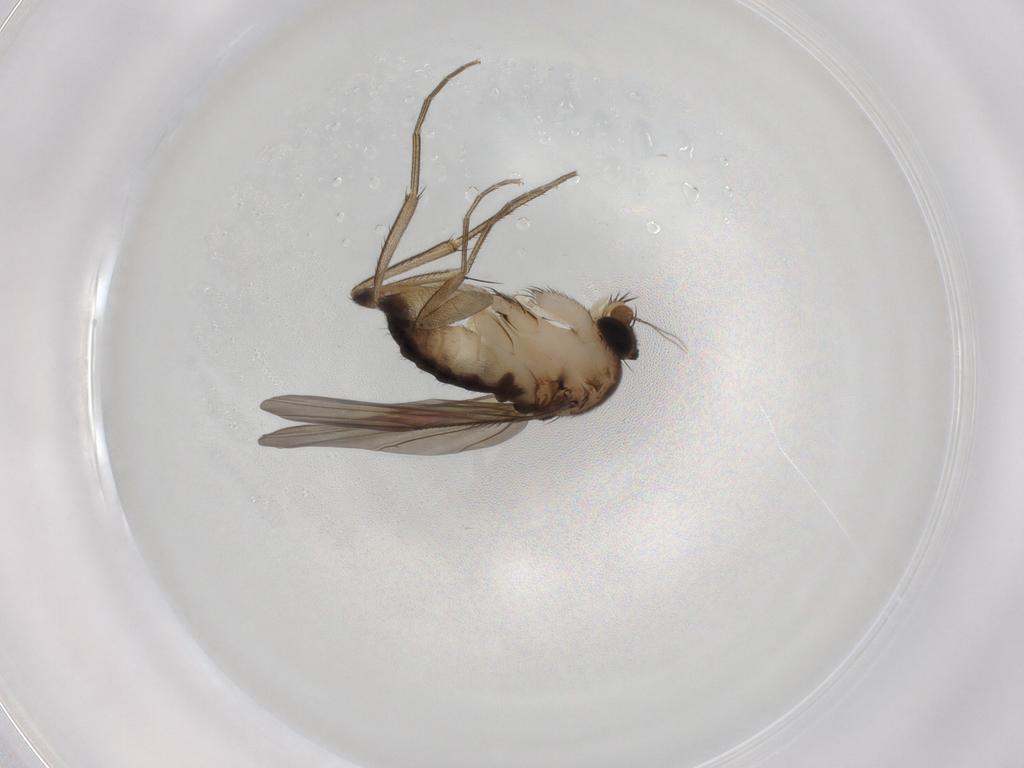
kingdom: Animalia
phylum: Arthropoda
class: Insecta
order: Diptera
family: Phoridae
